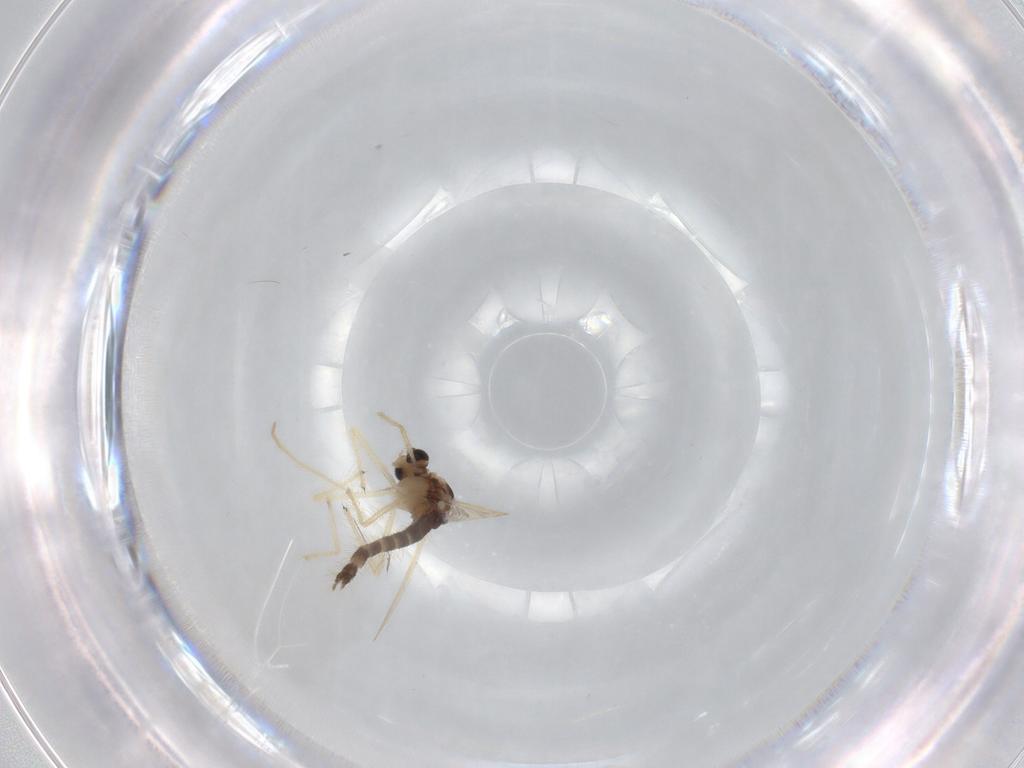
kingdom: Animalia
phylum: Arthropoda
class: Insecta
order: Diptera
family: Chironomidae
